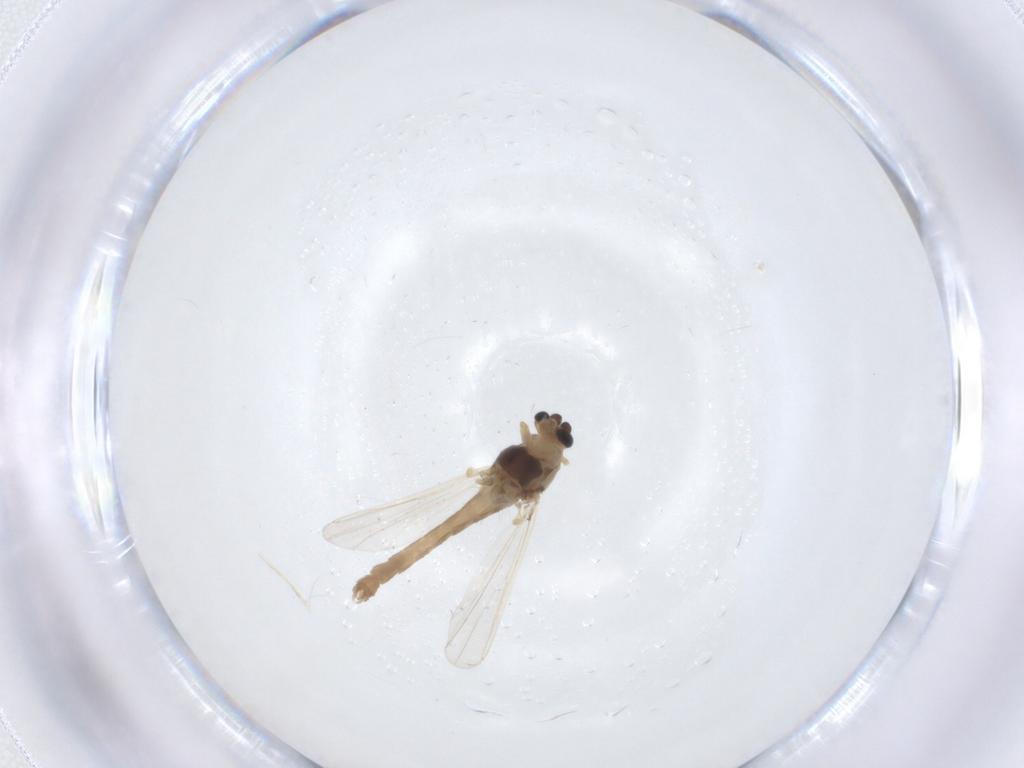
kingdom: Animalia
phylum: Arthropoda
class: Insecta
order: Diptera
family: Chironomidae
